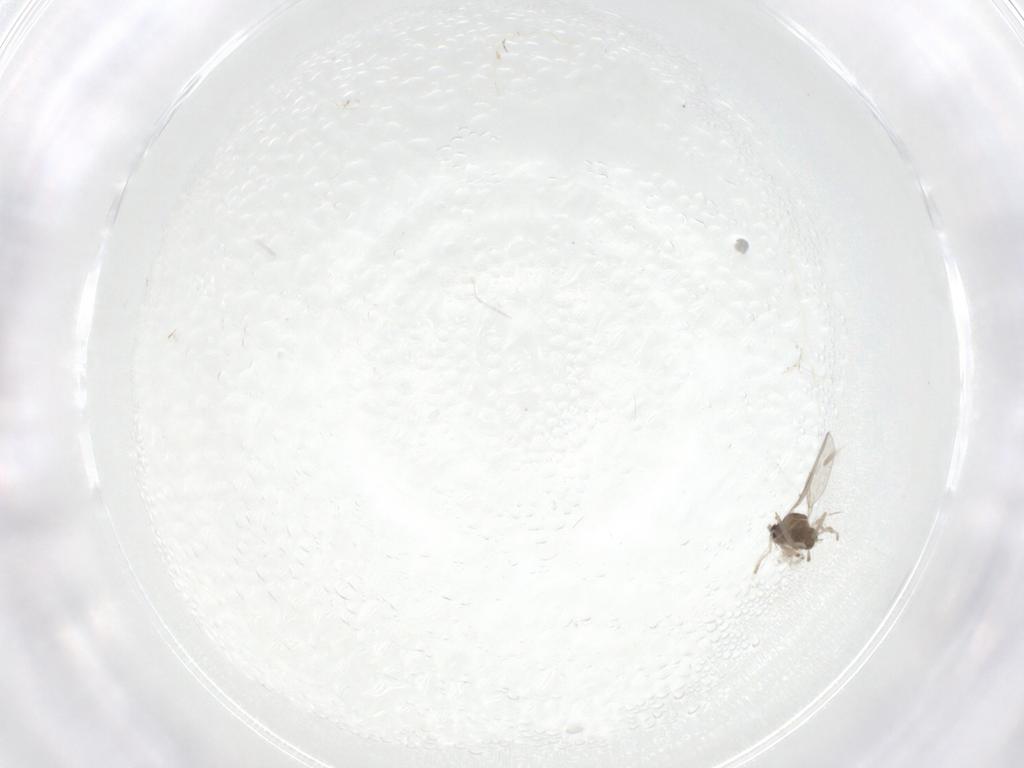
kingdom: Animalia
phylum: Arthropoda
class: Insecta
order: Diptera
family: Cecidomyiidae
